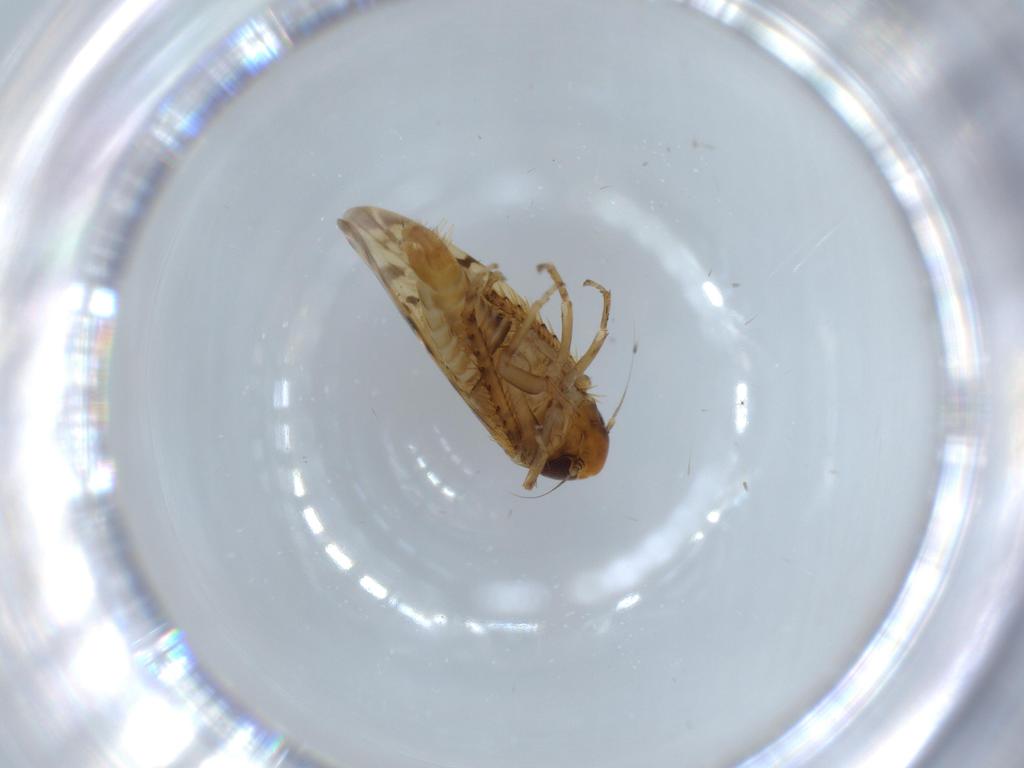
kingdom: Animalia
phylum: Arthropoda
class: Insecta
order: Hemiptera
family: Cicadellidae
